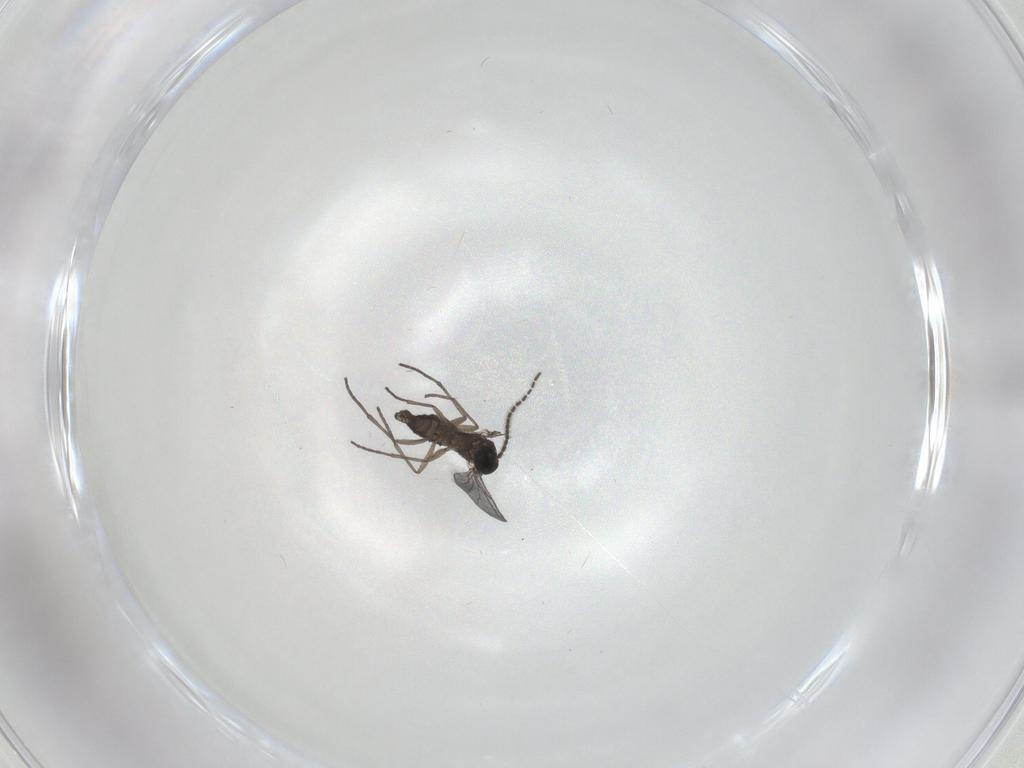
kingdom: Animalia
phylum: Arthropoda
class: Insecta
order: Diptera
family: Sciaridae
